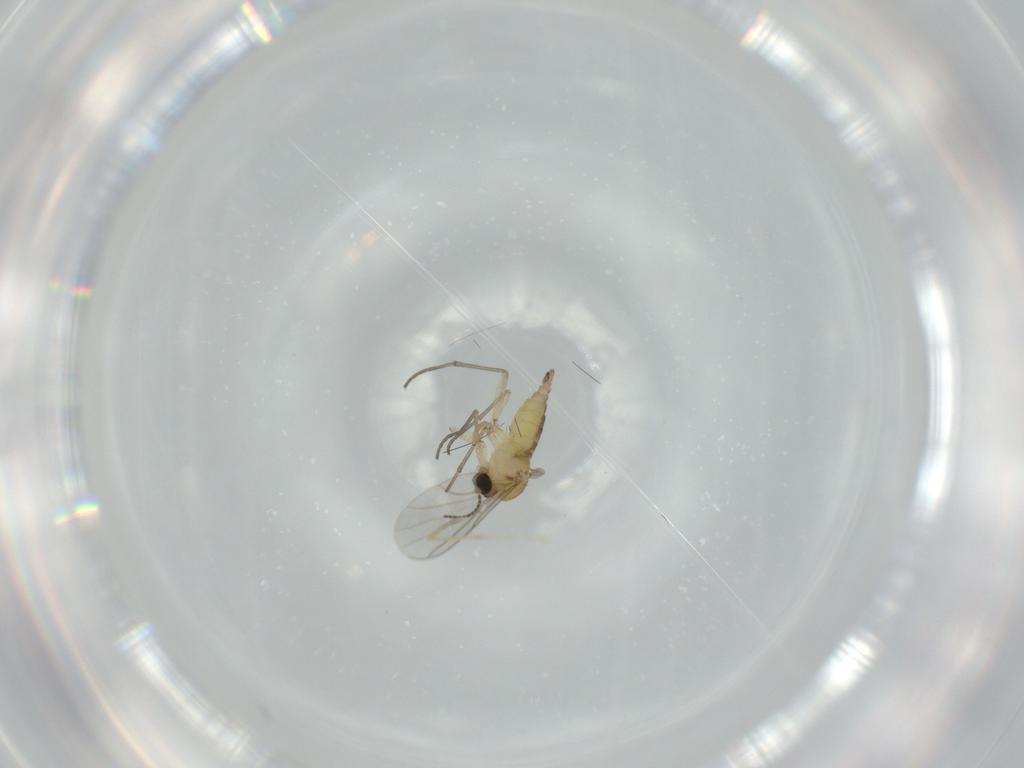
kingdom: Animalia
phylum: Arthropoda
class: Insecta
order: Diptera
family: Sciaridae
